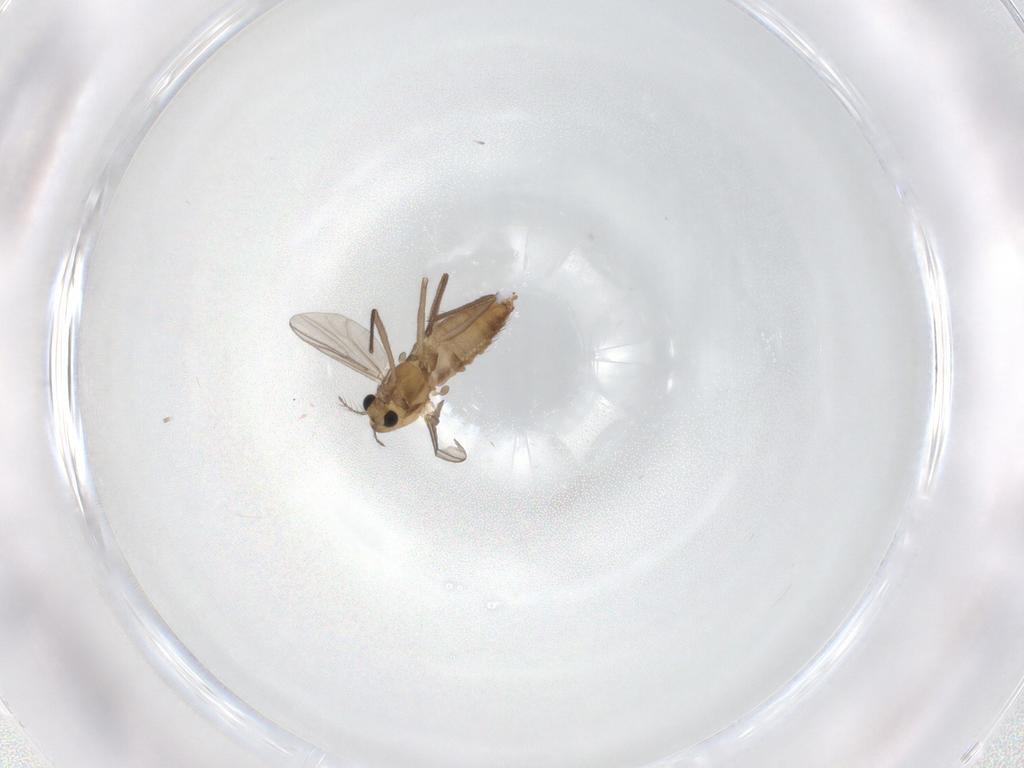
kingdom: Animalia
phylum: Arthropoda
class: Insecta
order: Diptera
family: Chironomidae
